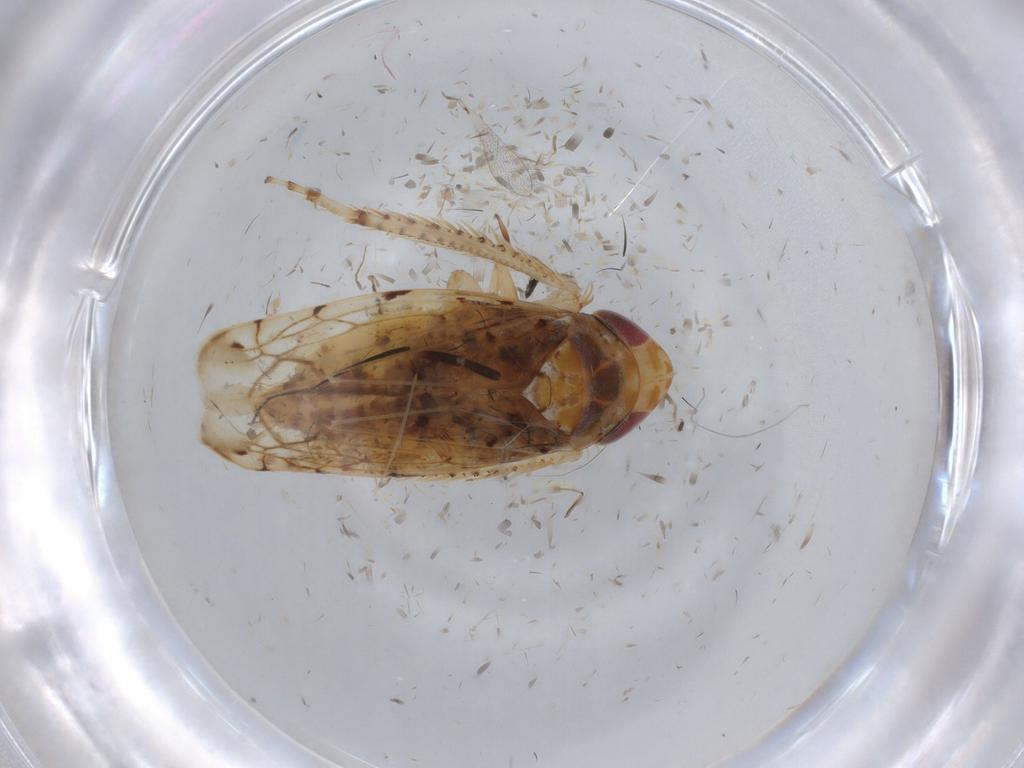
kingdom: Animalia
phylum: Arthropoda
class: Insecta
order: Hemiptera
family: Cicadellidae
